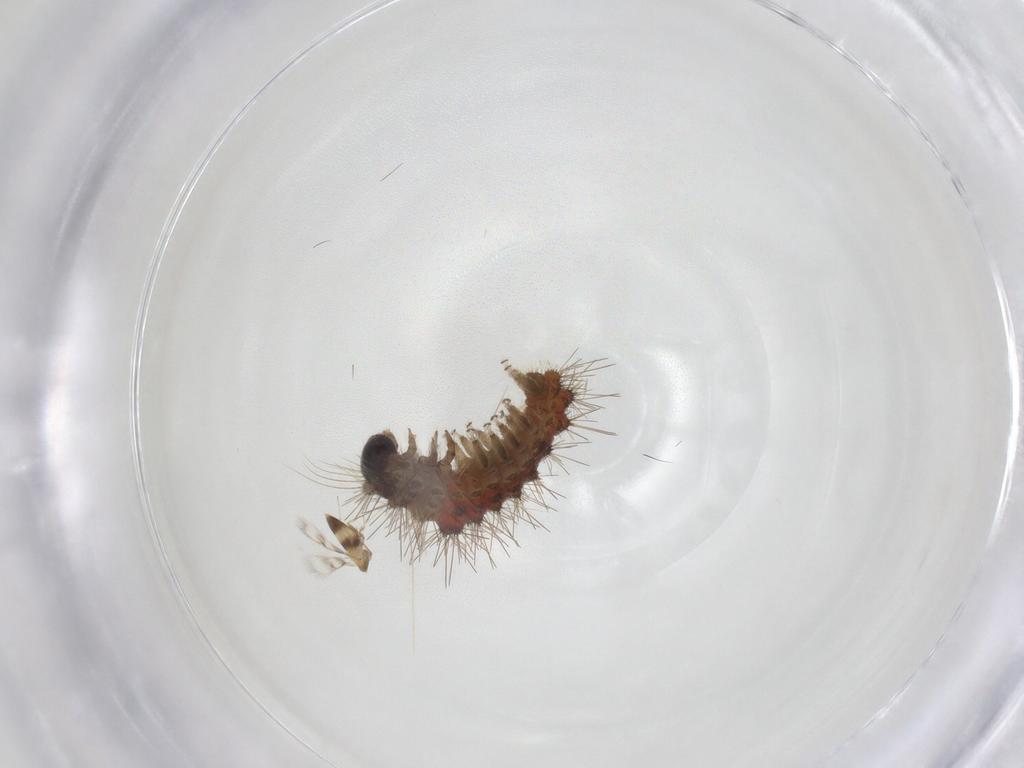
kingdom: Animalia
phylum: Arthropoda
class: Insecta
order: Lepidoptera
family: Erebidae
